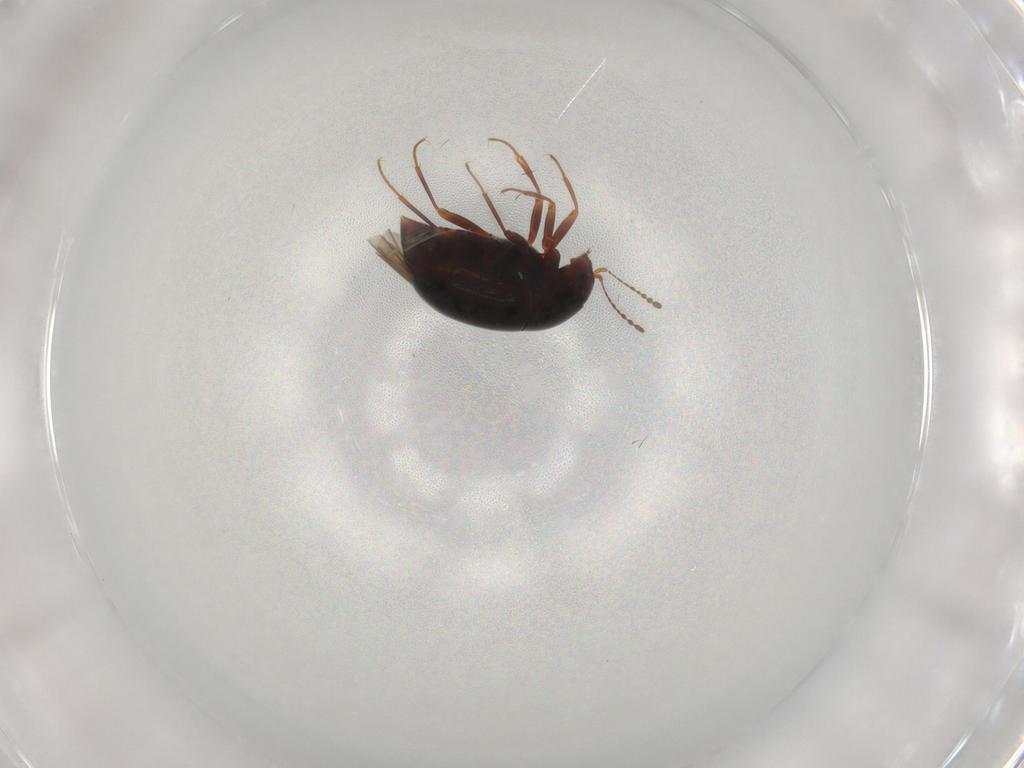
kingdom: Animalia
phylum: Arthropoda
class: Insecta
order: Coleoptera
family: Staphylinidae
